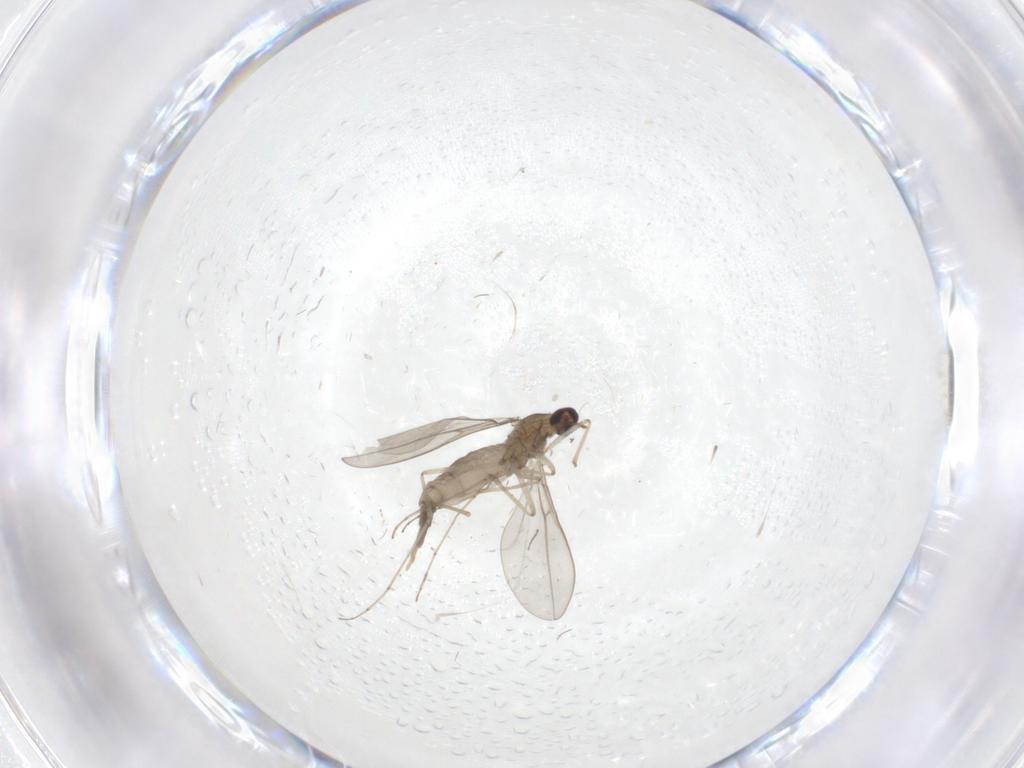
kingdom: Animalia
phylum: Arthropoda
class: Insecta
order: Diptera
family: Cecidomyiidae
